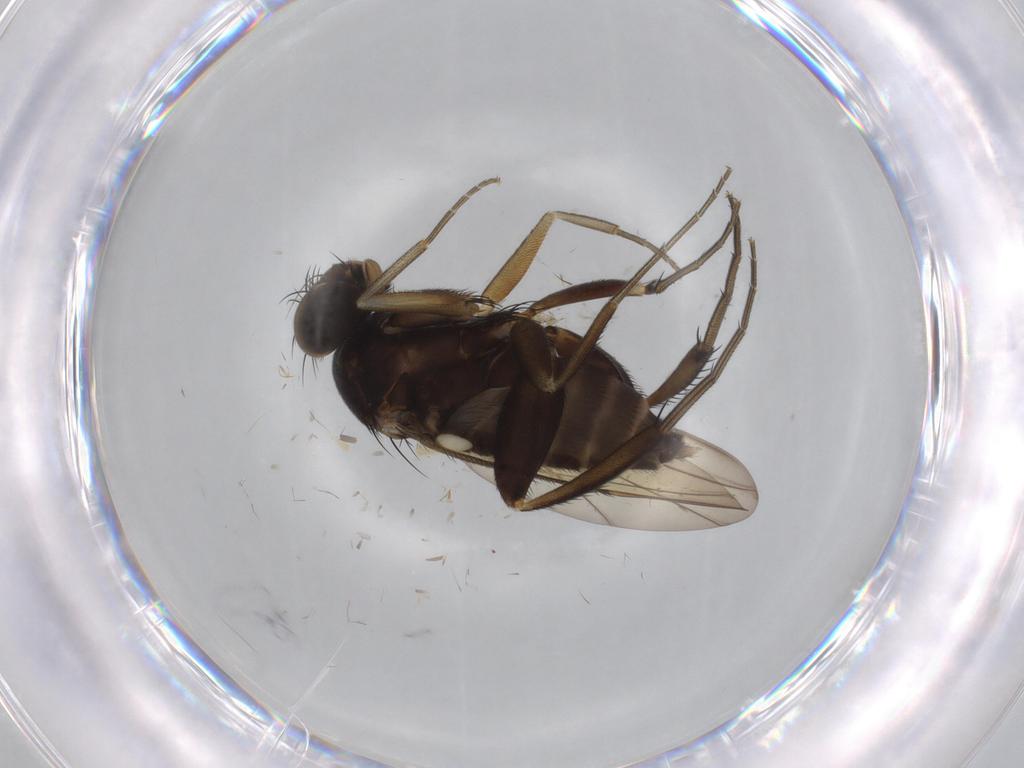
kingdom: Animalia
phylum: Arthropoda
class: Insecta
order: Diptera
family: Phoridae
